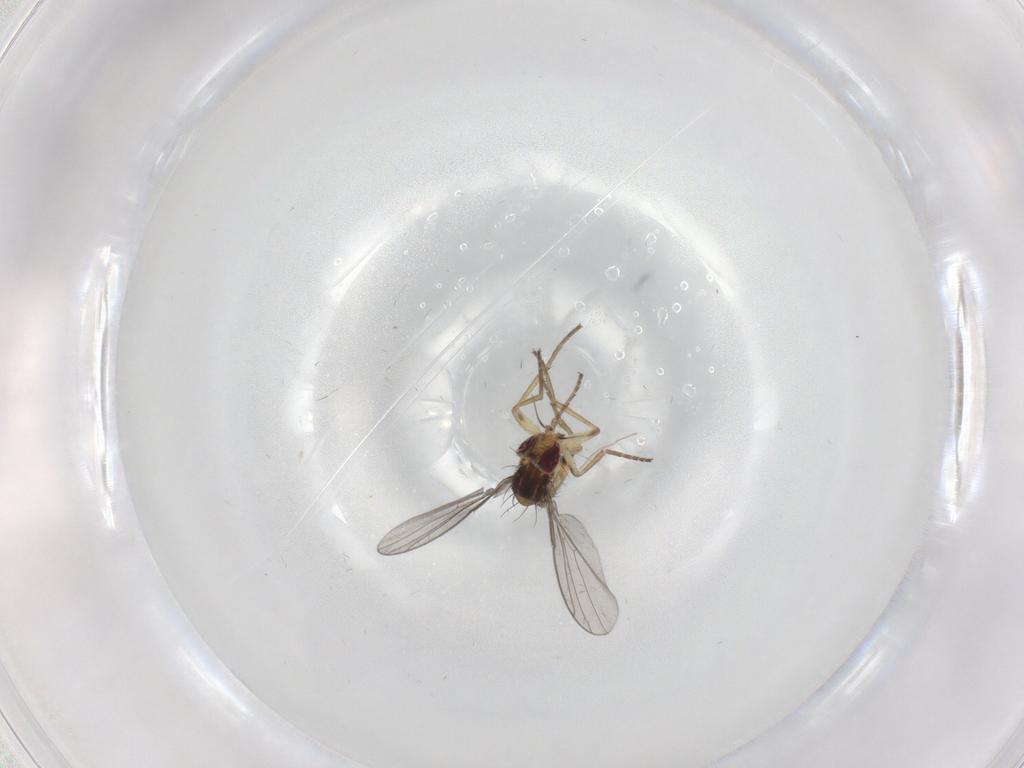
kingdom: Animalia
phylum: Arthropoda
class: Insecta
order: Diptera
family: Agromyzidae
